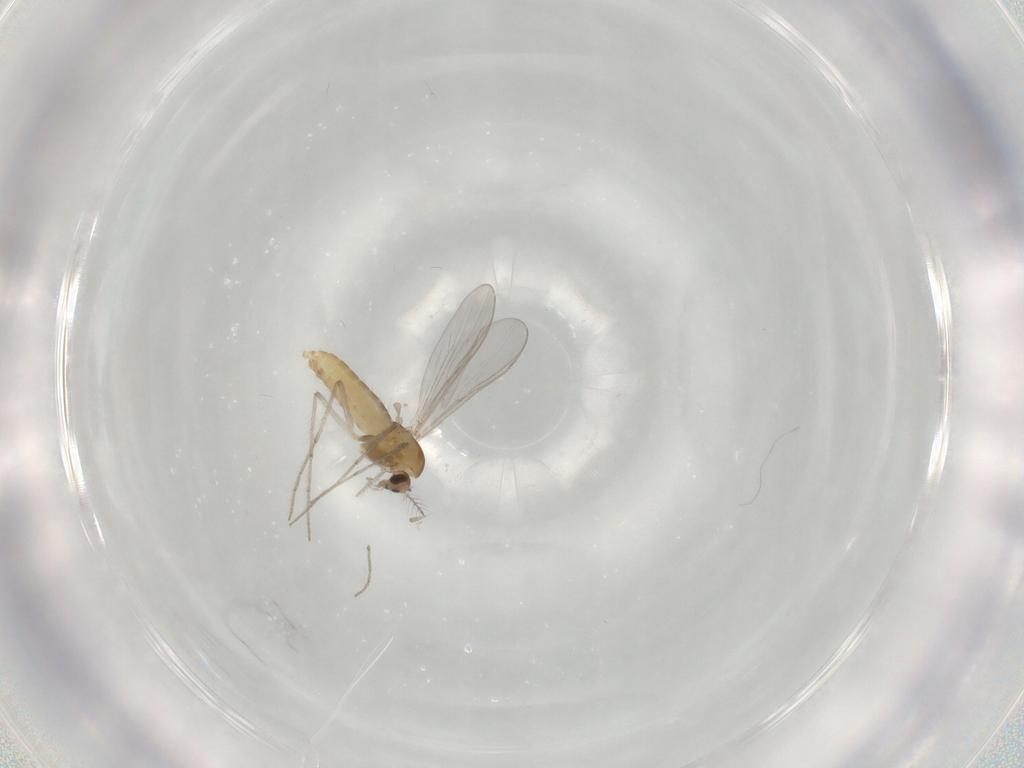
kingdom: Animalia
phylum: Arthropoda
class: Insecta
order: Diptera
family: Chironomidae
